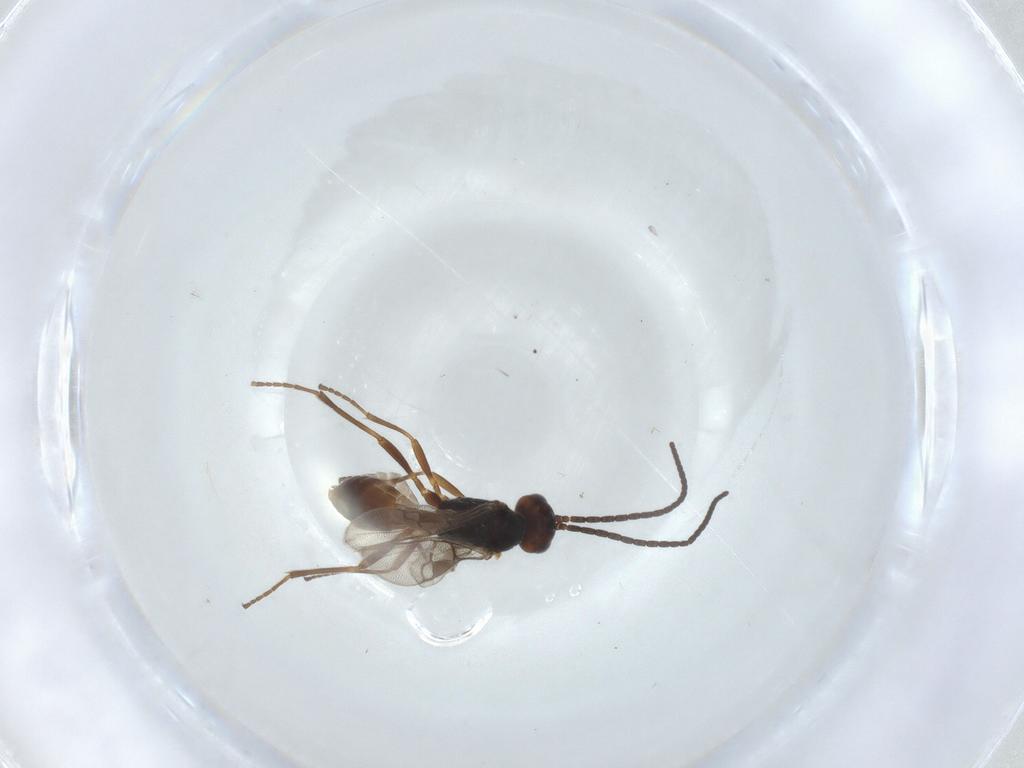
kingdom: Animalia
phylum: Arthropoda
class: Insecta
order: Hymenoptera
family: Braconidae
